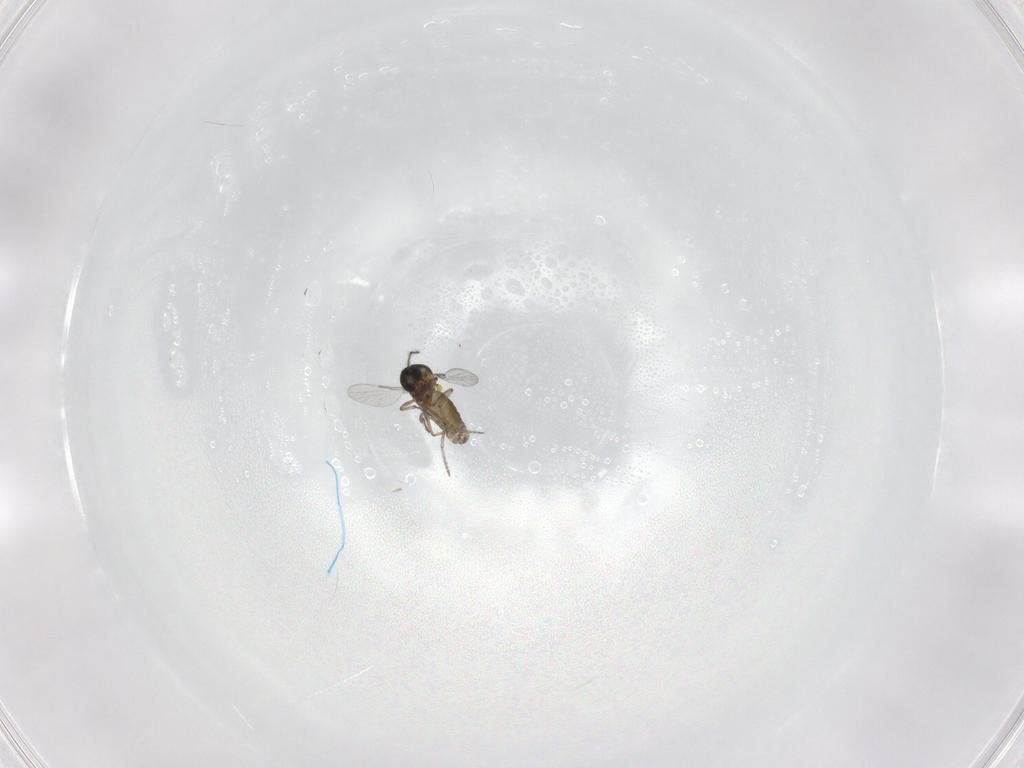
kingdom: Animalia
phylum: Arthropoda
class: Insecta
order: Diptera
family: Ceratopogonidae
